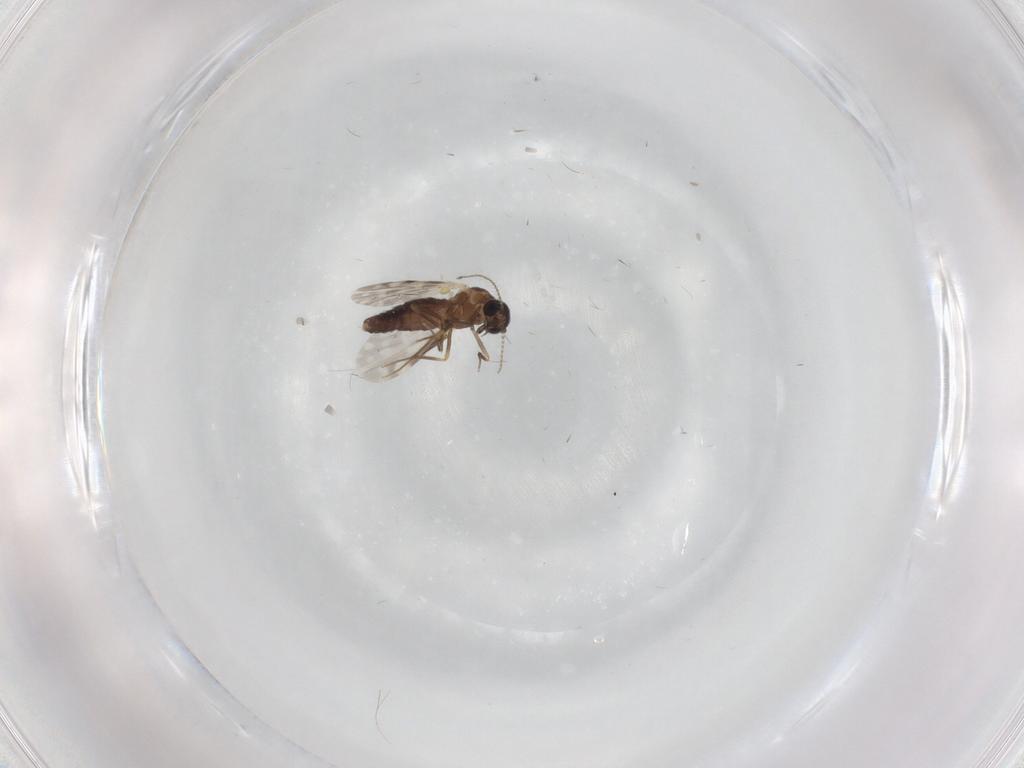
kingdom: Animalia
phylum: Arthropoda
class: Insecta
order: Diptera
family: Ceratopogonidae
